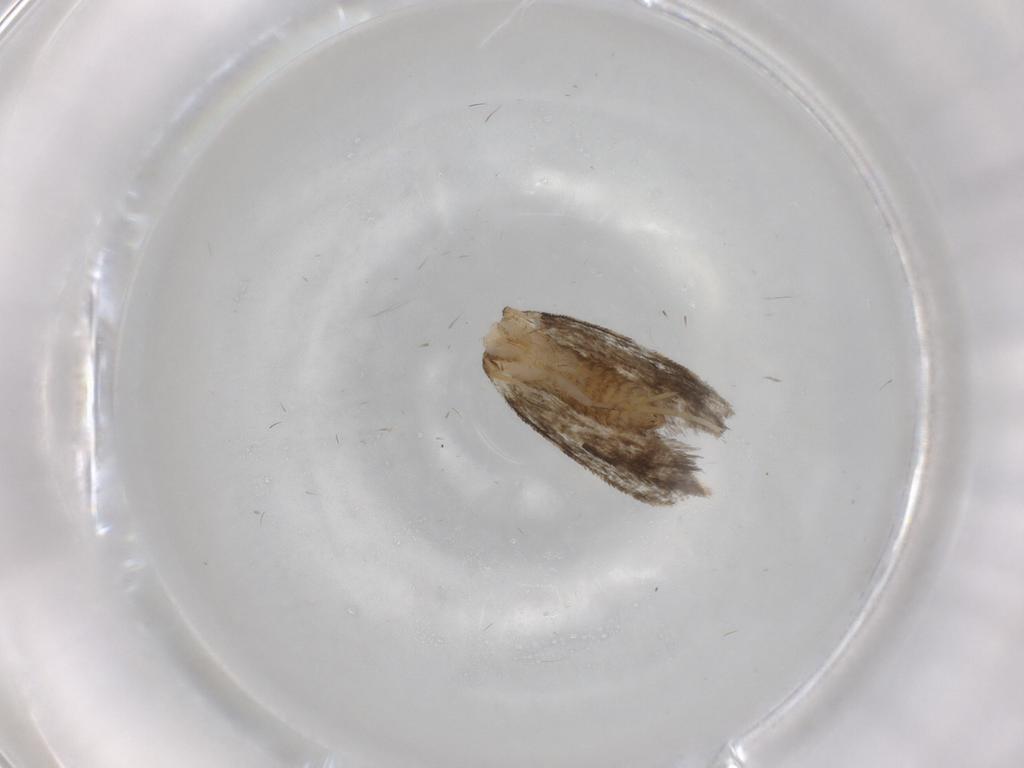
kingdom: Animalia
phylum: Arthropoda
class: Insecta
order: Lepidoptera
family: Psychidae
